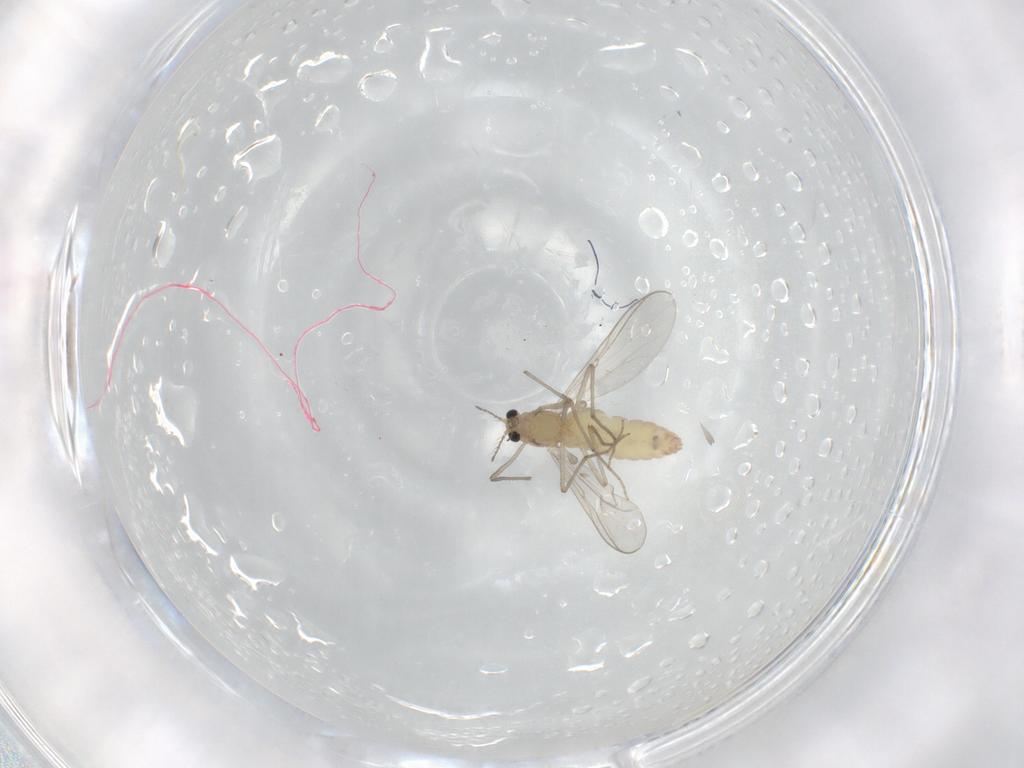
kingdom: Animalia
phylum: Arthropoda
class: Insecta
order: Diptera
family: Chironomidae
